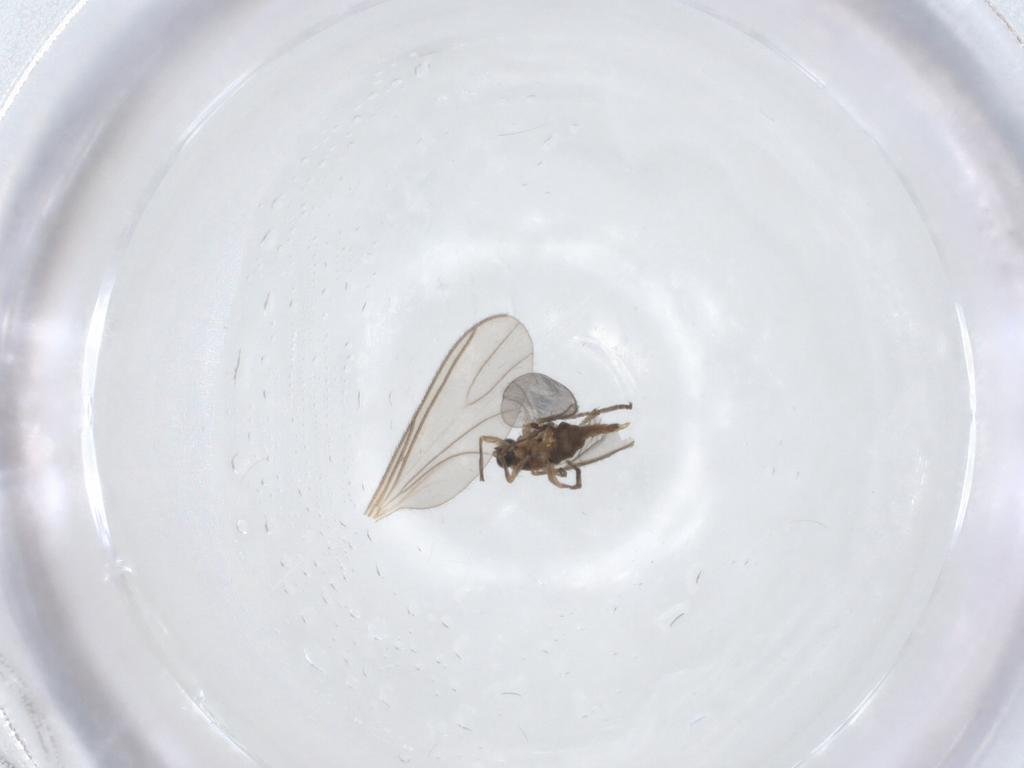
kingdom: Animalia
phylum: Arthropoda
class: Insecta
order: Diptera
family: Sciaridae
